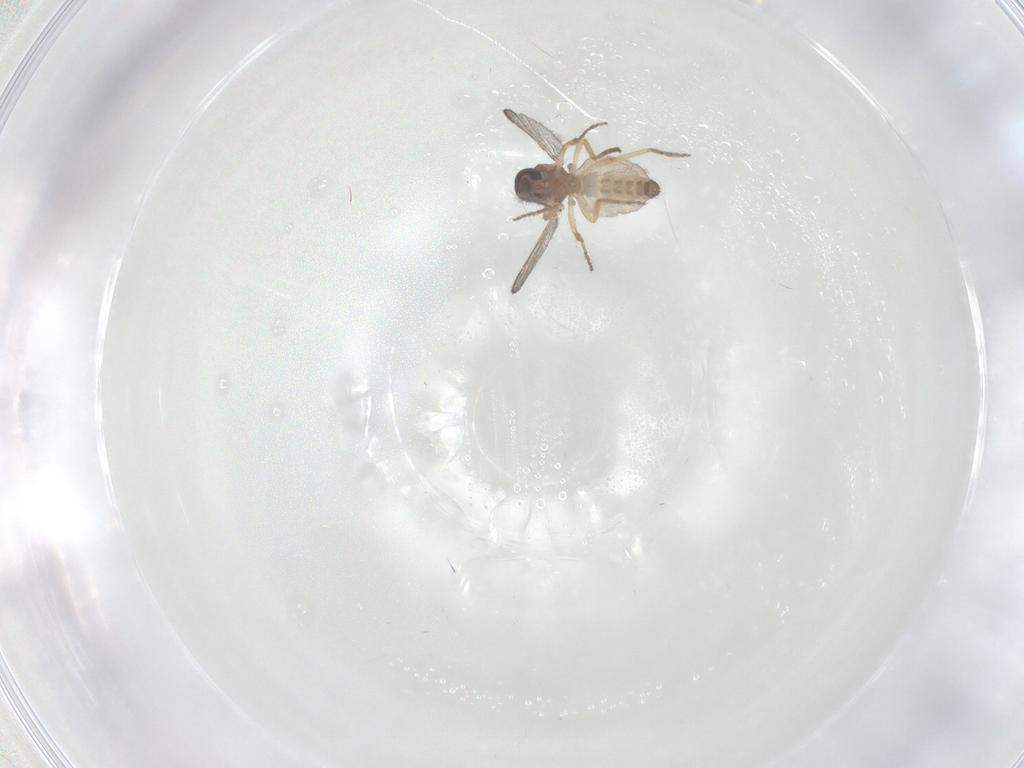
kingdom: Animalia
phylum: Arthropoda
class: Insecta
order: Diptera
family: Ceratopogonidae
